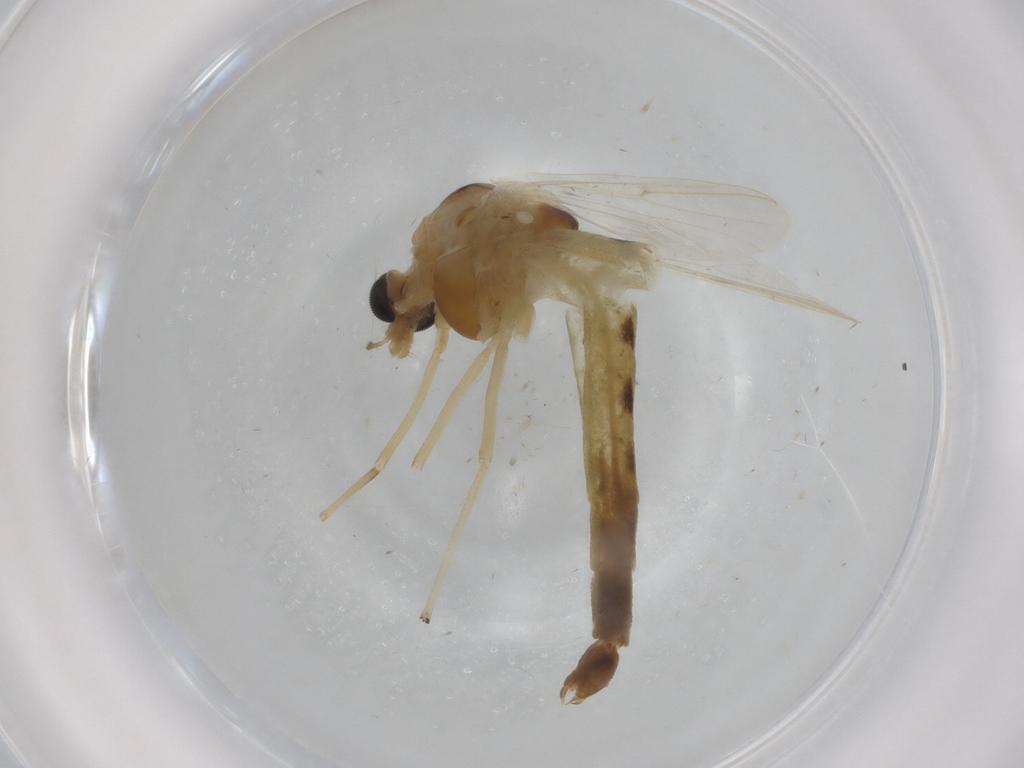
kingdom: Animalia
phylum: Arthropoda
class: Insecta
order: Diptera
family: Chironomidae
